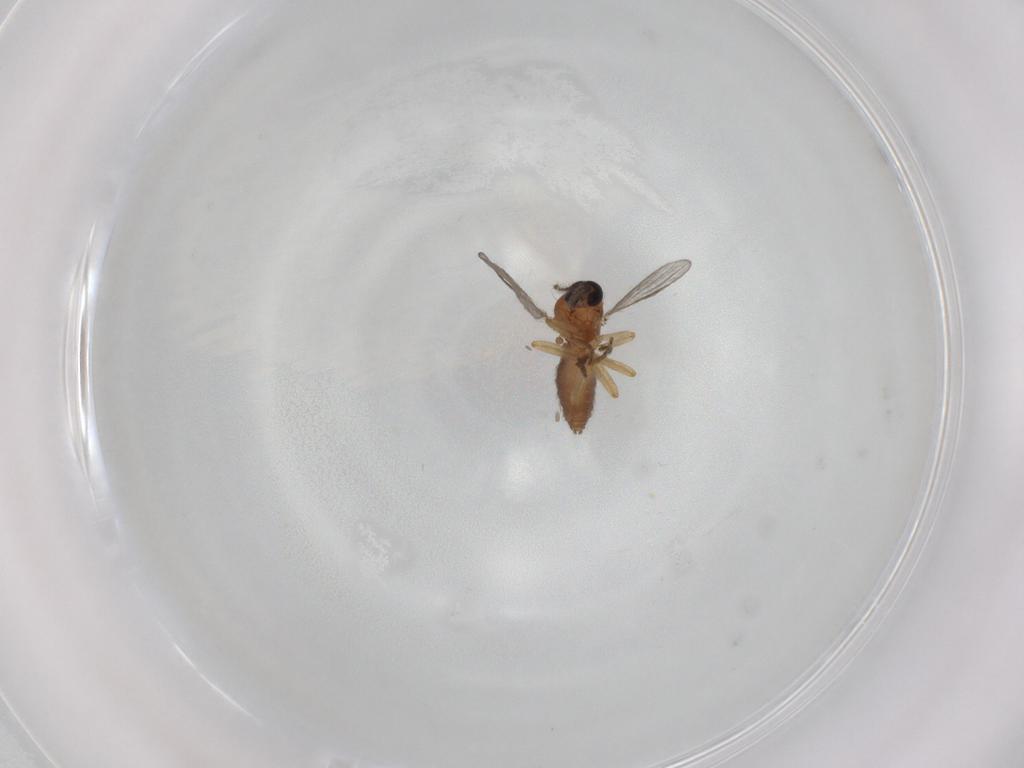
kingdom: Animalia
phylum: Arthropoda
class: Insecta
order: Diptera
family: Ceratopogonidae
